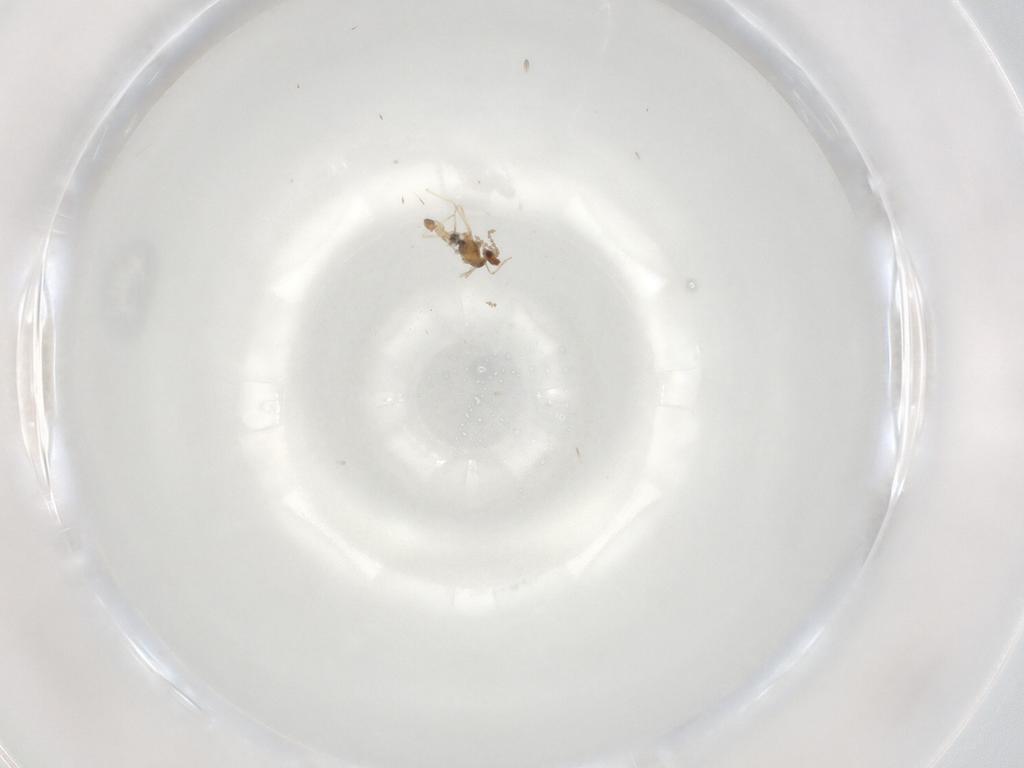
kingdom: Animalia
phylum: Arthropoda
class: Insecta
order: Diptera
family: Cecidomyiidae
